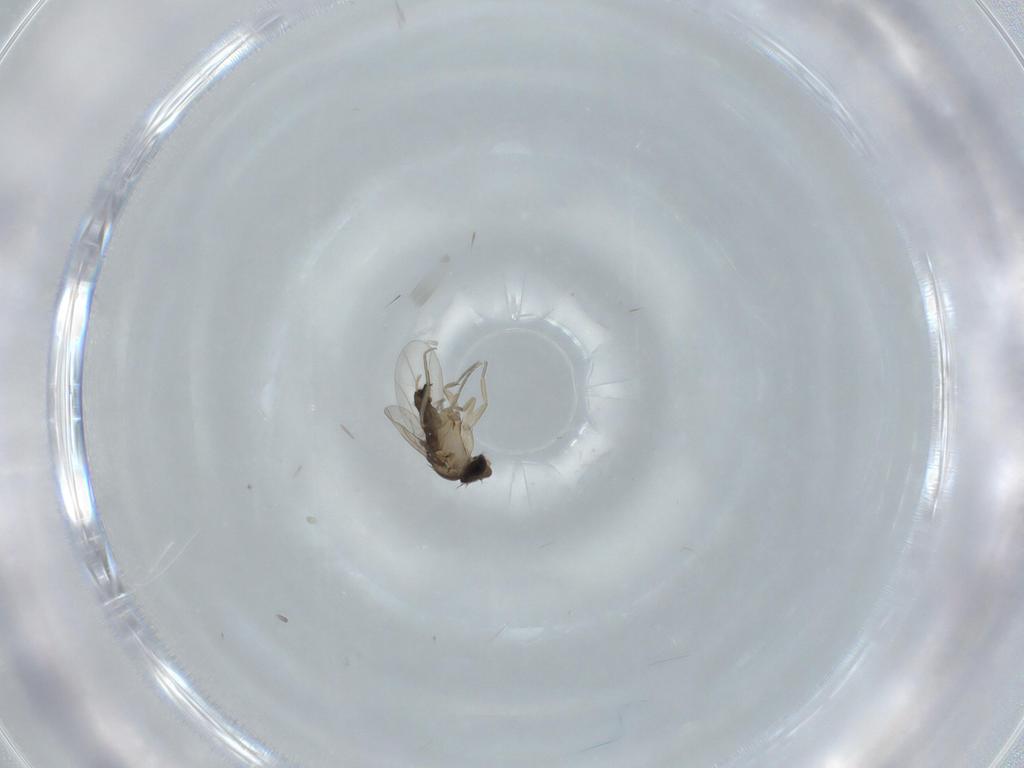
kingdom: Animalia
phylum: Arthropoda
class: Insecta
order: Diptera
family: Phoridae
